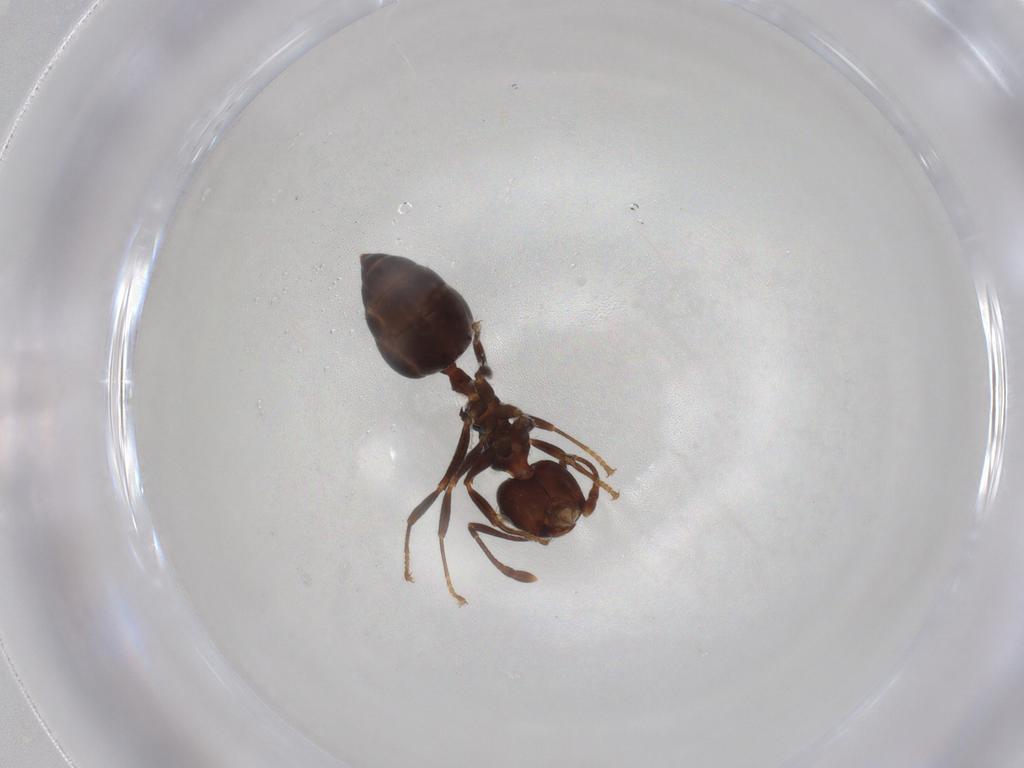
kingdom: Animalia
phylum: Arthropoda
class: Insecta
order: Hymenoptera
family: Formicidae
